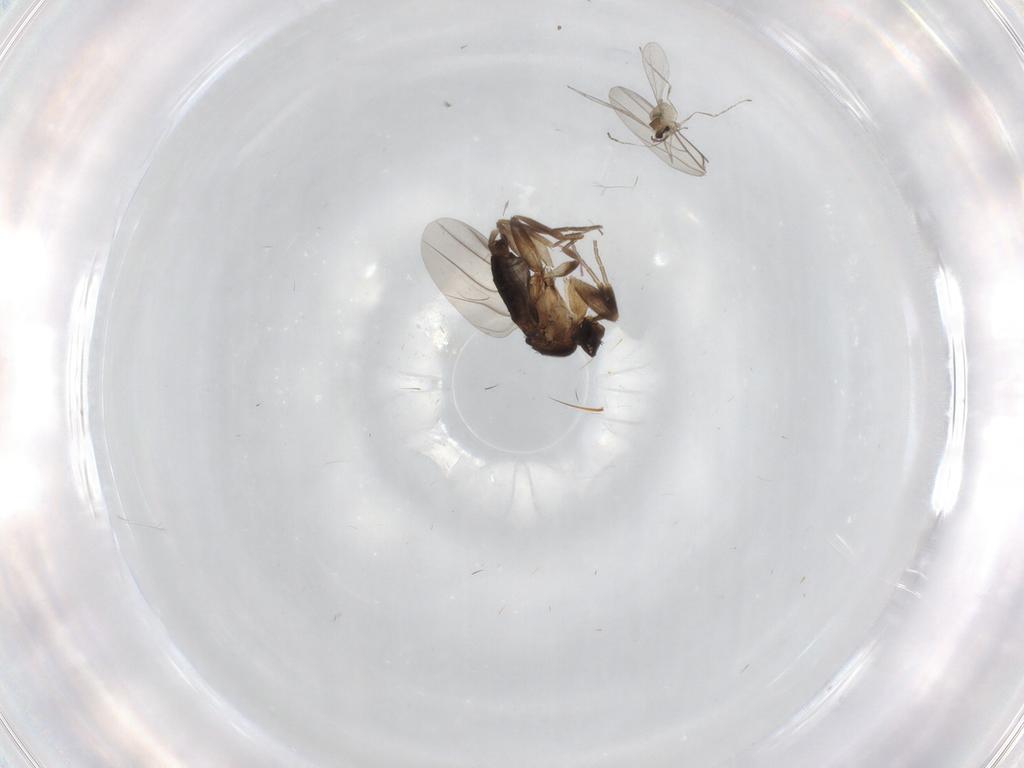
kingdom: Animalia
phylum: Arthropoda
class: Insecta
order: Diptera
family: Phoridae
